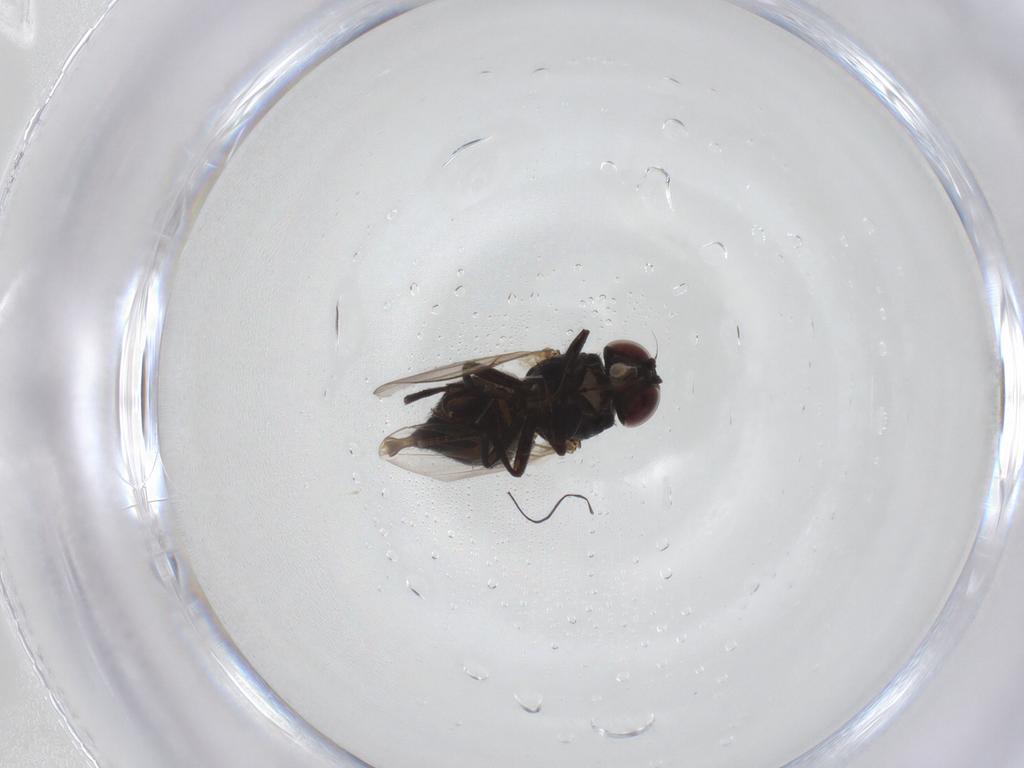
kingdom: Animalia
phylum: Arthropoda
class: Insecta
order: Diptera
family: Agromyzidae
